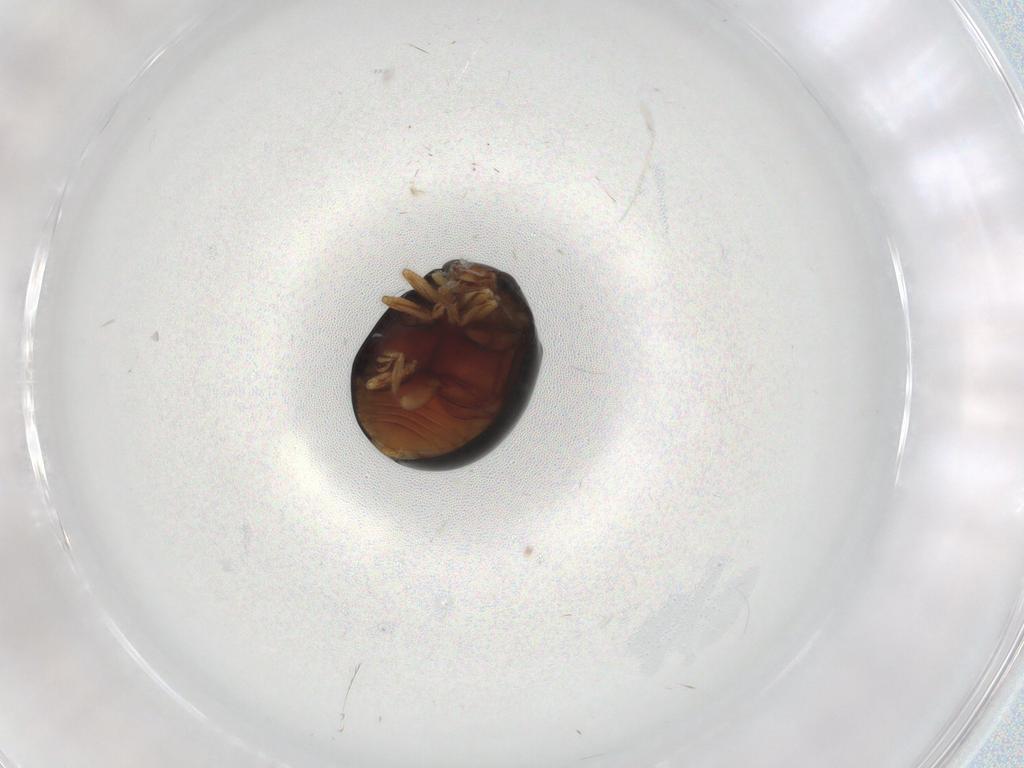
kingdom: Animalia
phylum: Arthropoda
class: Insecta
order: Coleoptera
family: Coccinellidae
